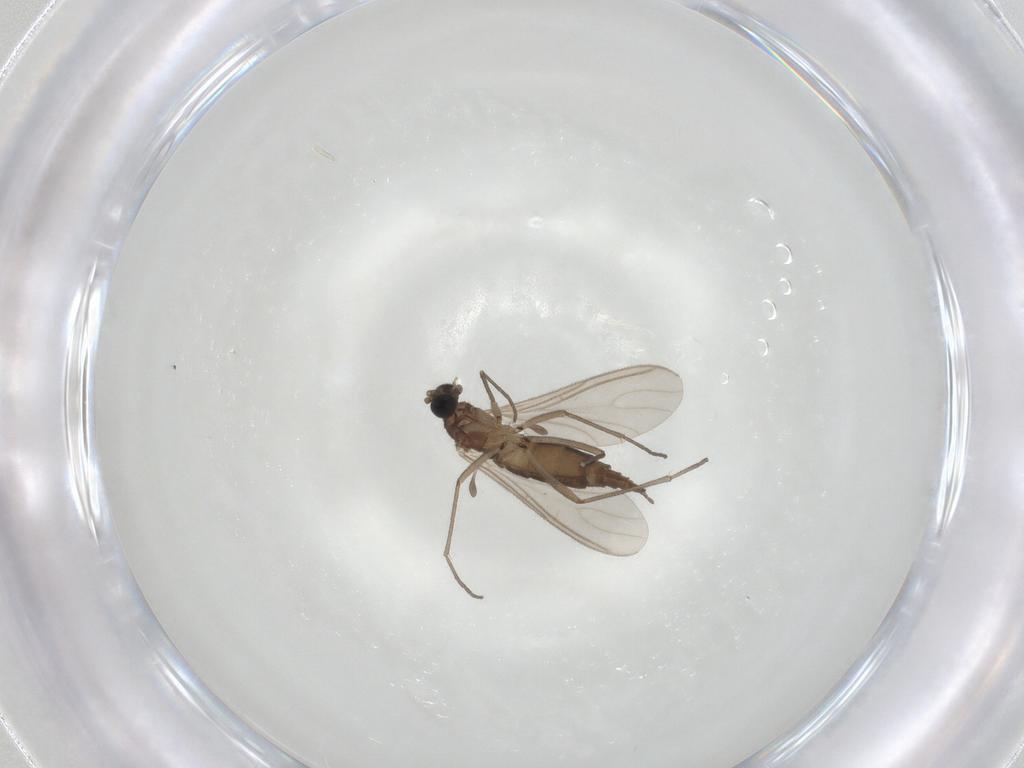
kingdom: Animalia
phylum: Arthropoda
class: Insecta
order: Diptera
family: Sciaridae
